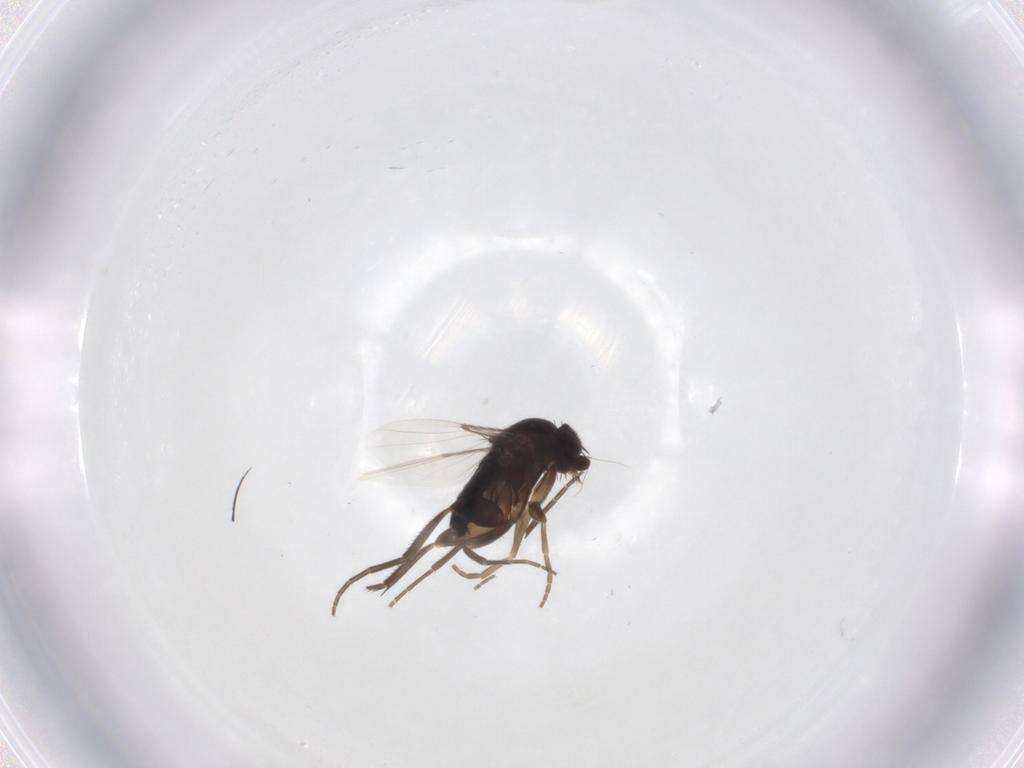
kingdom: Animalia
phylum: Arthropoda
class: Insecta
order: Diptera
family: Phoridae
